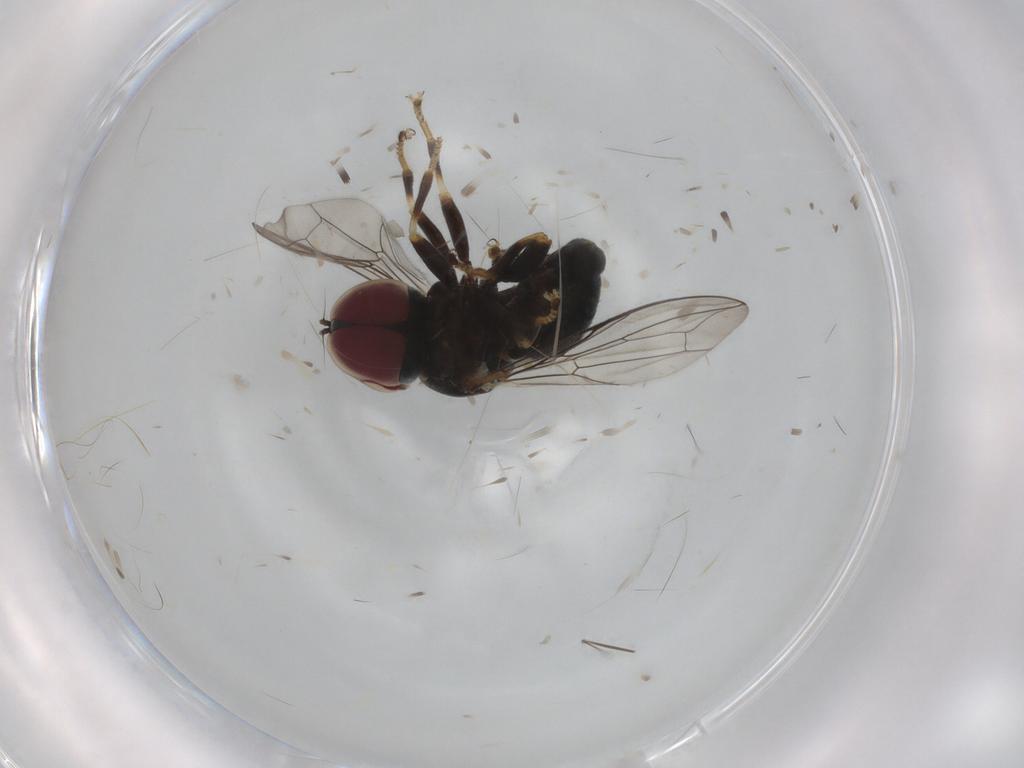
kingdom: Animalia
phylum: Arthropoda
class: Insecta
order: Diptera
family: Pipunculidae
